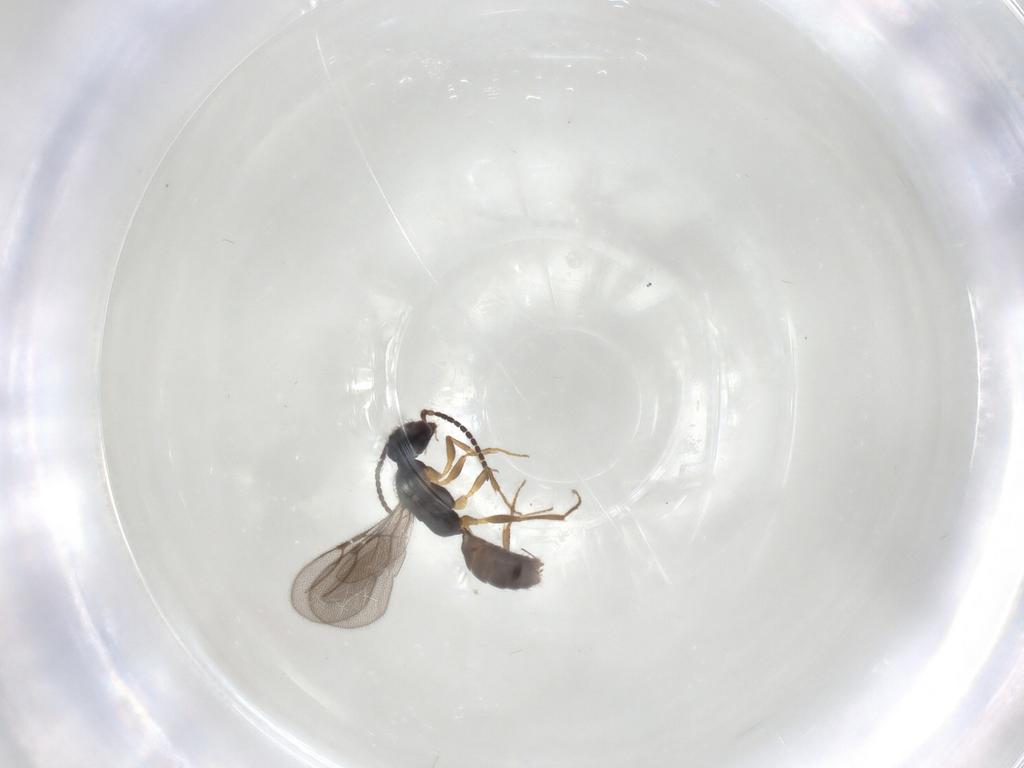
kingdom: Animalia
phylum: Arthropoda
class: Insecta
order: Hymenoptera
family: Bethylidae
